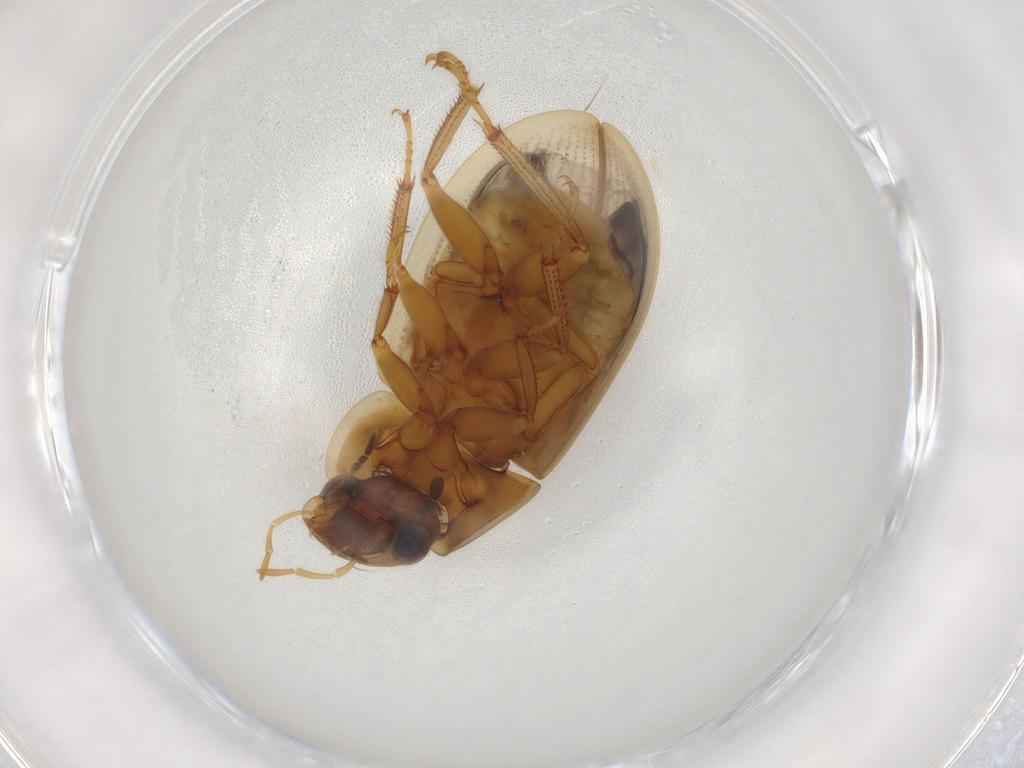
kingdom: Animalia
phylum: Arthropoda
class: Insecta
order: Coleoptera
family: Hydrophilidae
